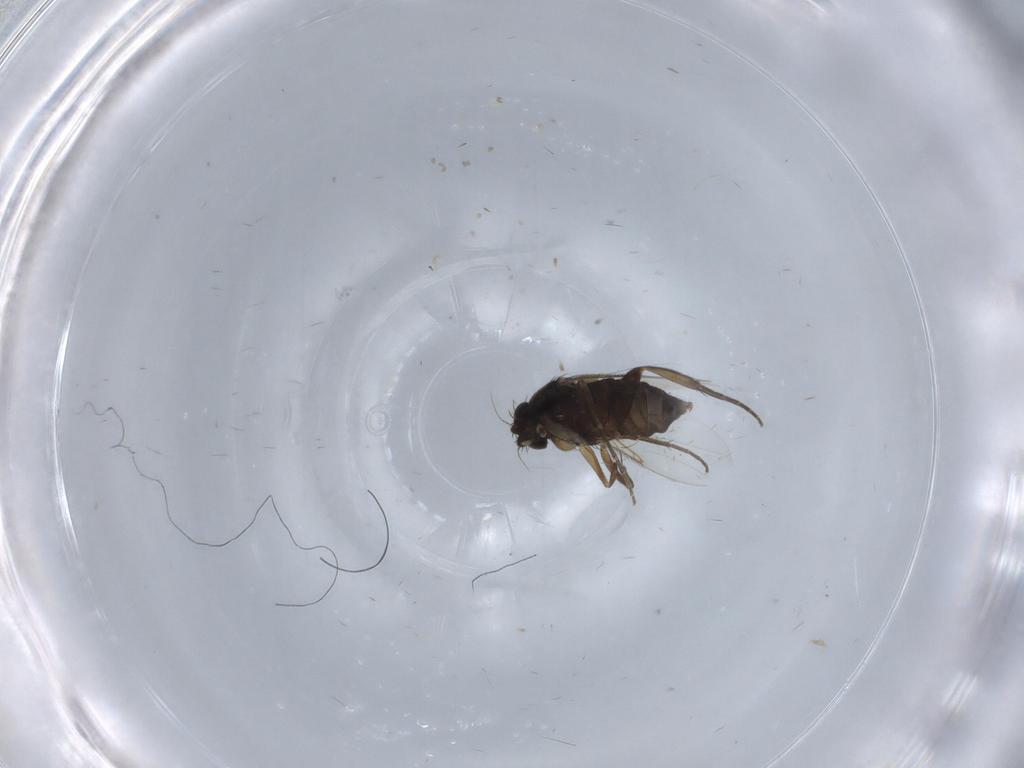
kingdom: Animalia
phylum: Arthropoda
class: Insecta
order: Diptera
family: Phoridae
